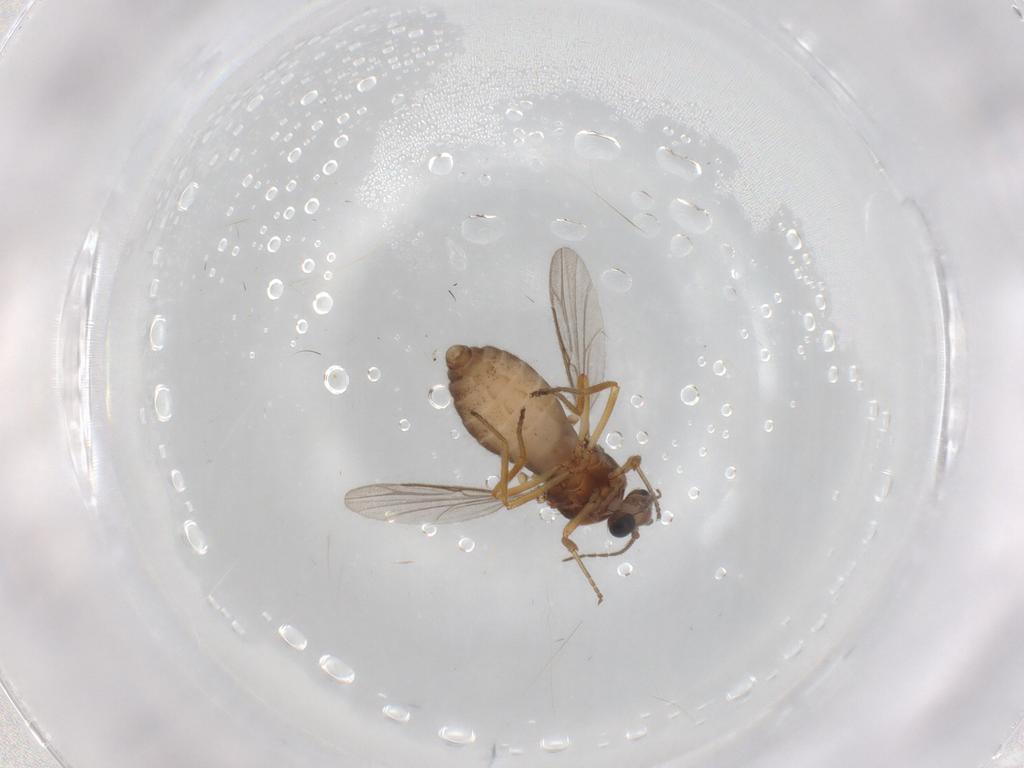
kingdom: Animalia
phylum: Arthropoda
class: Insecta
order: Diptera
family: Ceratopogonidae
